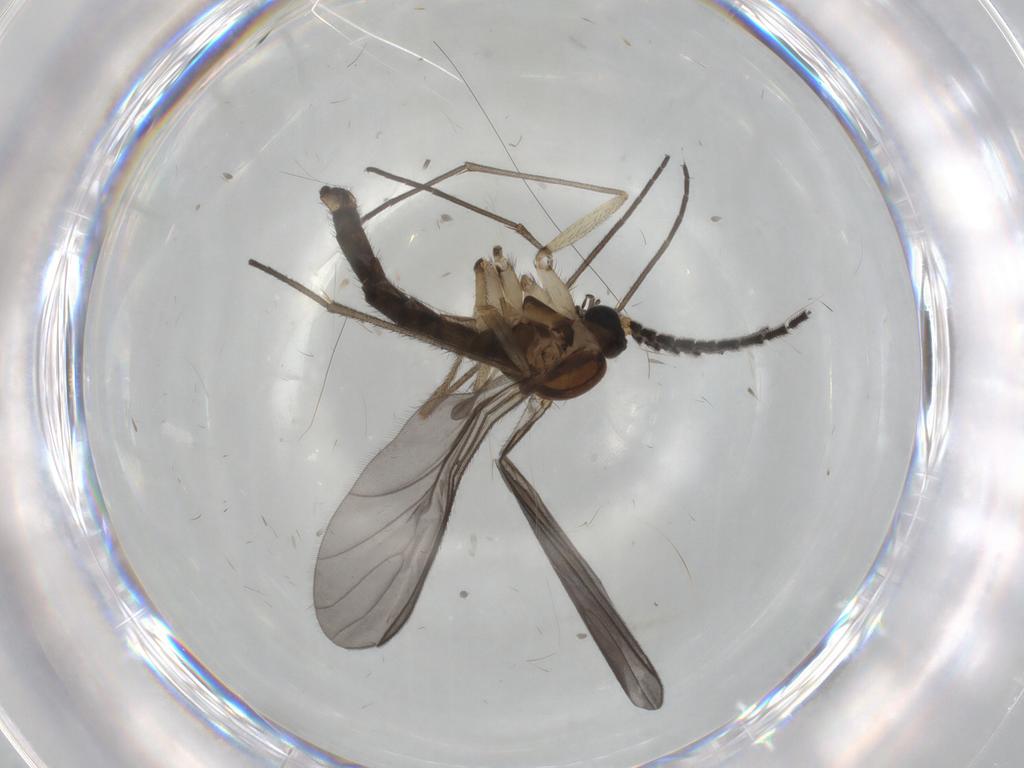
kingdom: Animalia
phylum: Arthropoda
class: Insecta
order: Diptera
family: Sciaridae
